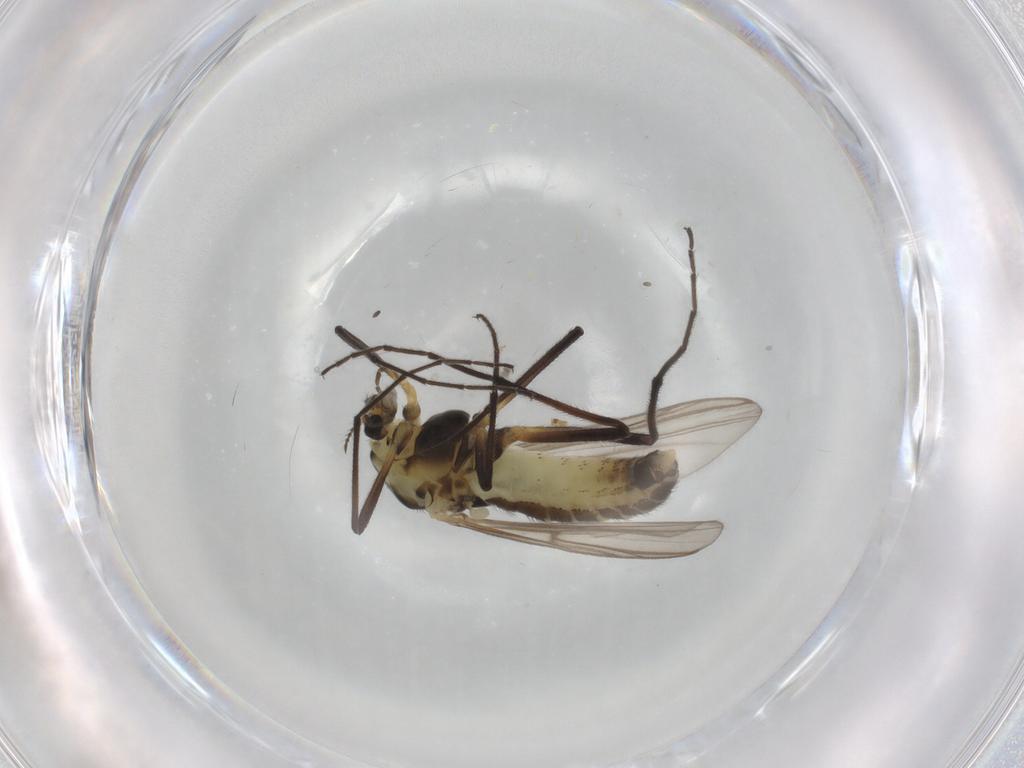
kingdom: Animalia
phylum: Arthropoda
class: Insecta
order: Diptera
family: Chironomidae
